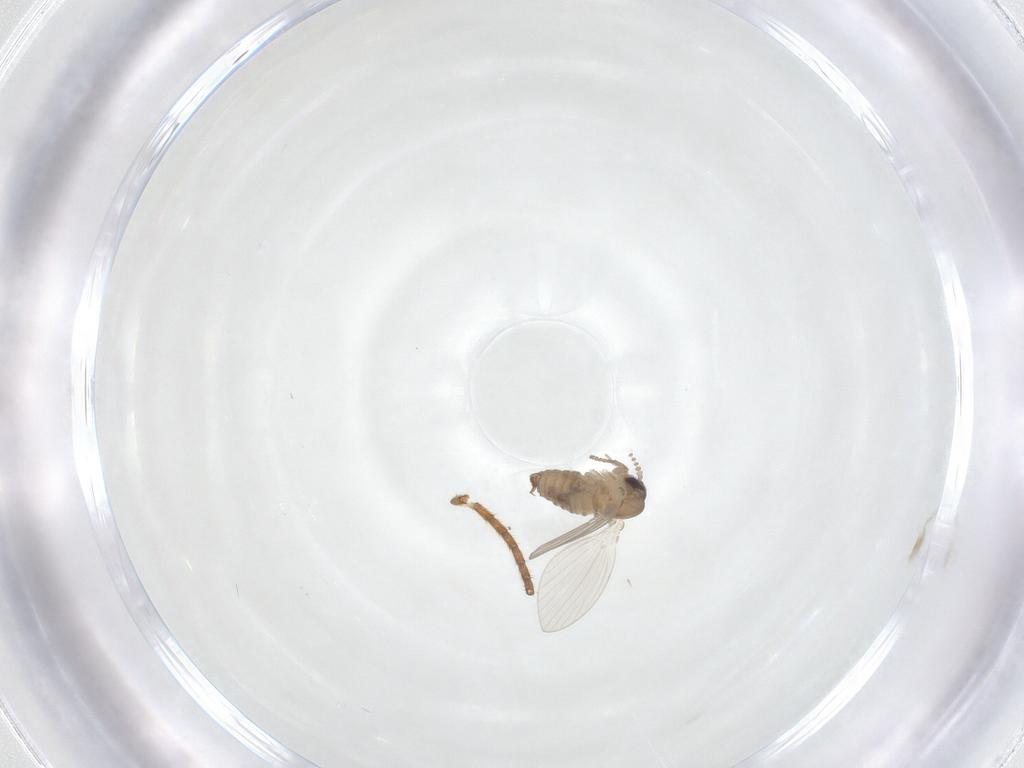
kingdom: Animalia
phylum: Arthropoda
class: Insecta
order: Diptera
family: Psychodidae
